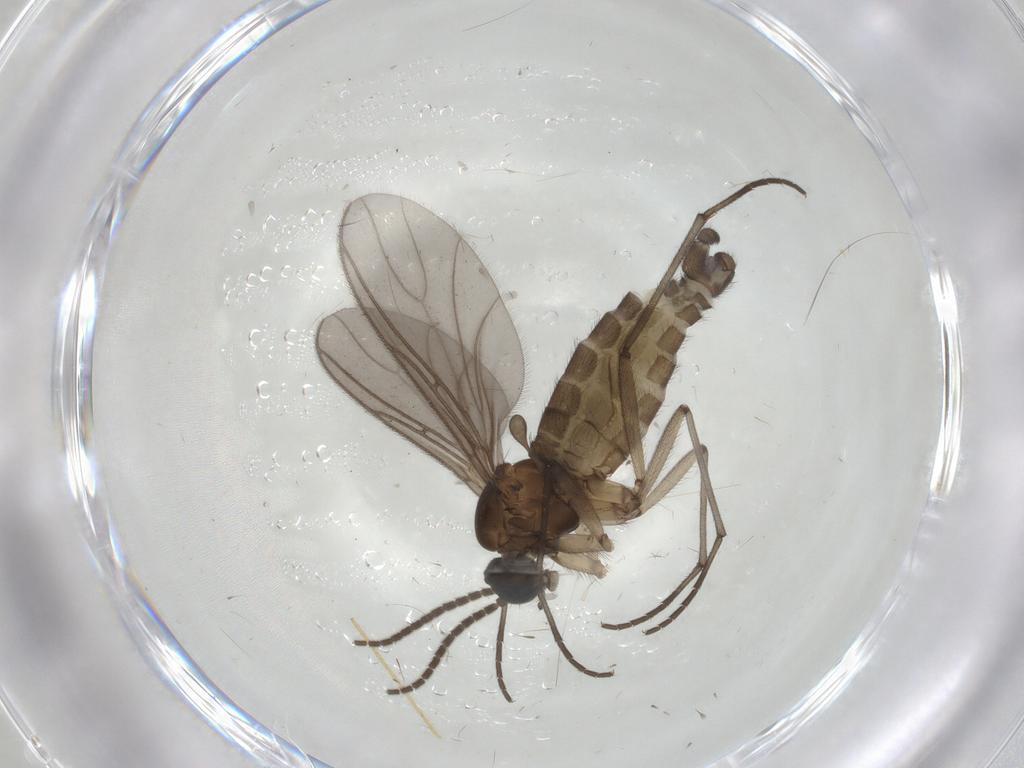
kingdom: Animalia
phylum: Arthropoda
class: Insecta
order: Diptera
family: Sciaridae
